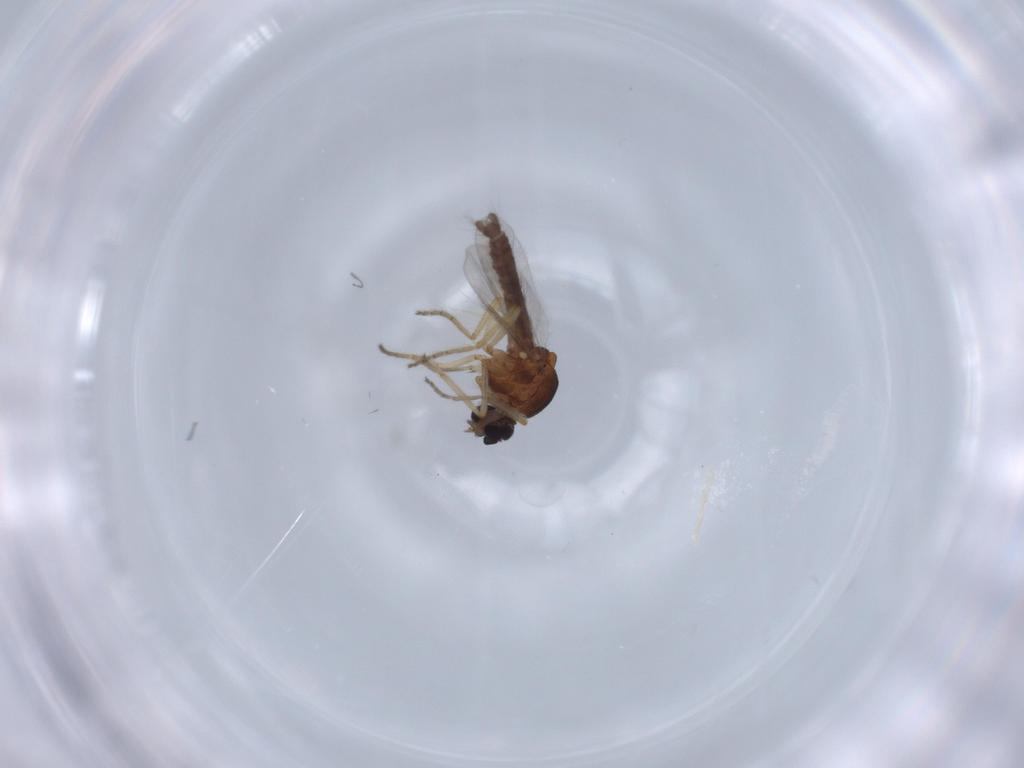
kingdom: Animalia
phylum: Arthropoda
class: Insecta
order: Diptera
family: Ceratopogonidae
